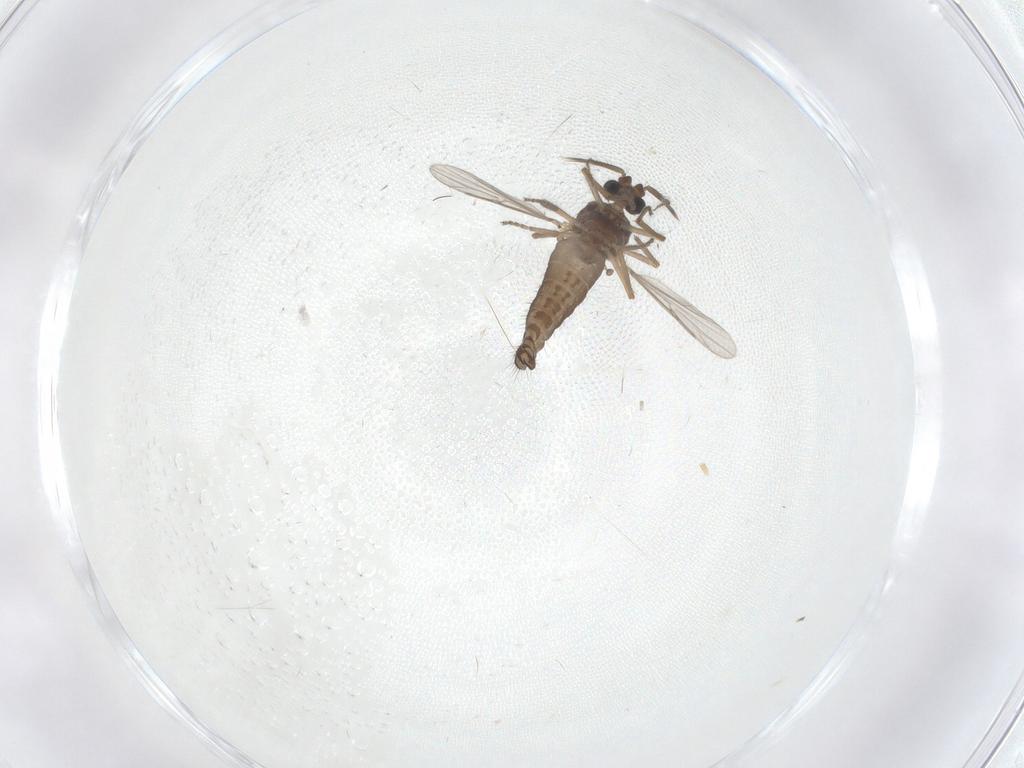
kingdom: Animalia
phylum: Arthropoda
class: Insecta
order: Diptera
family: Ceratopogonidae
